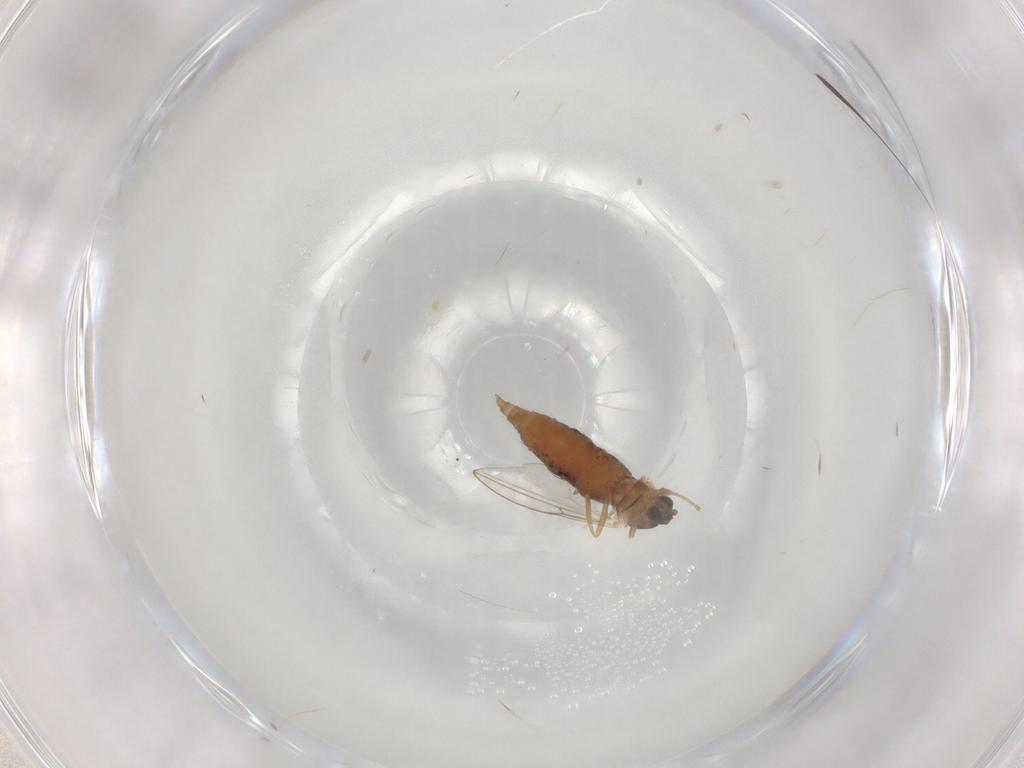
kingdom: Animalia
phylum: Arthropoda
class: Insecta
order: Diptera
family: Cecidomyiidae
